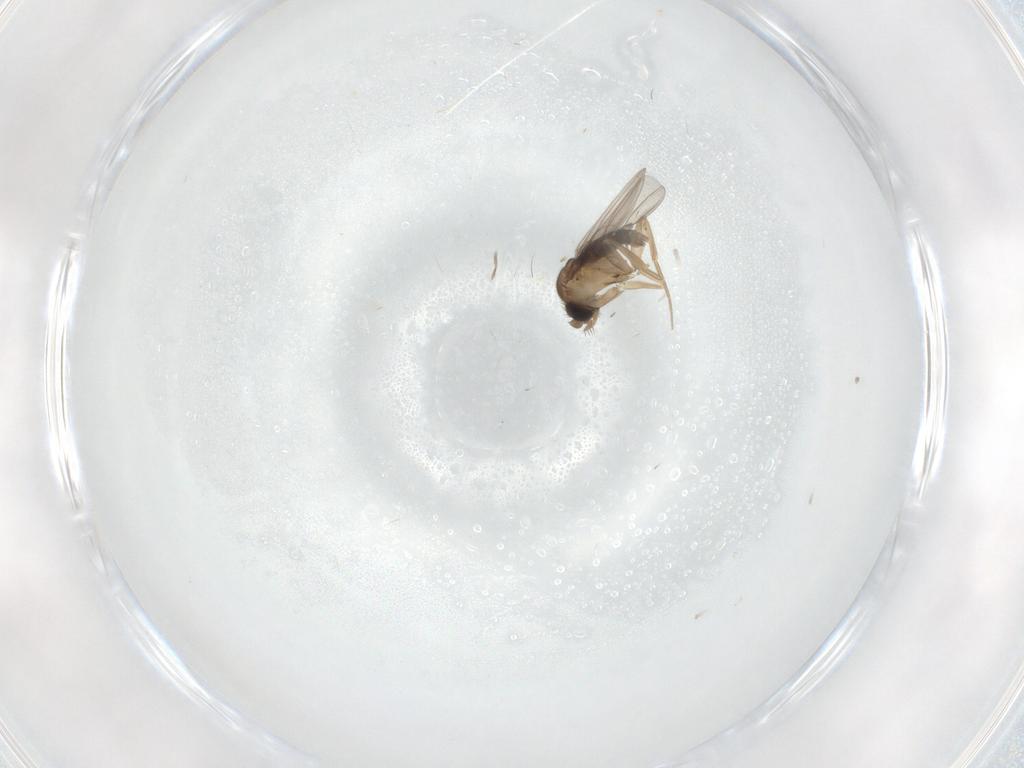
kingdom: Animalia
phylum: Arthropoda
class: Insecta
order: Diptera
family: Phoridae
